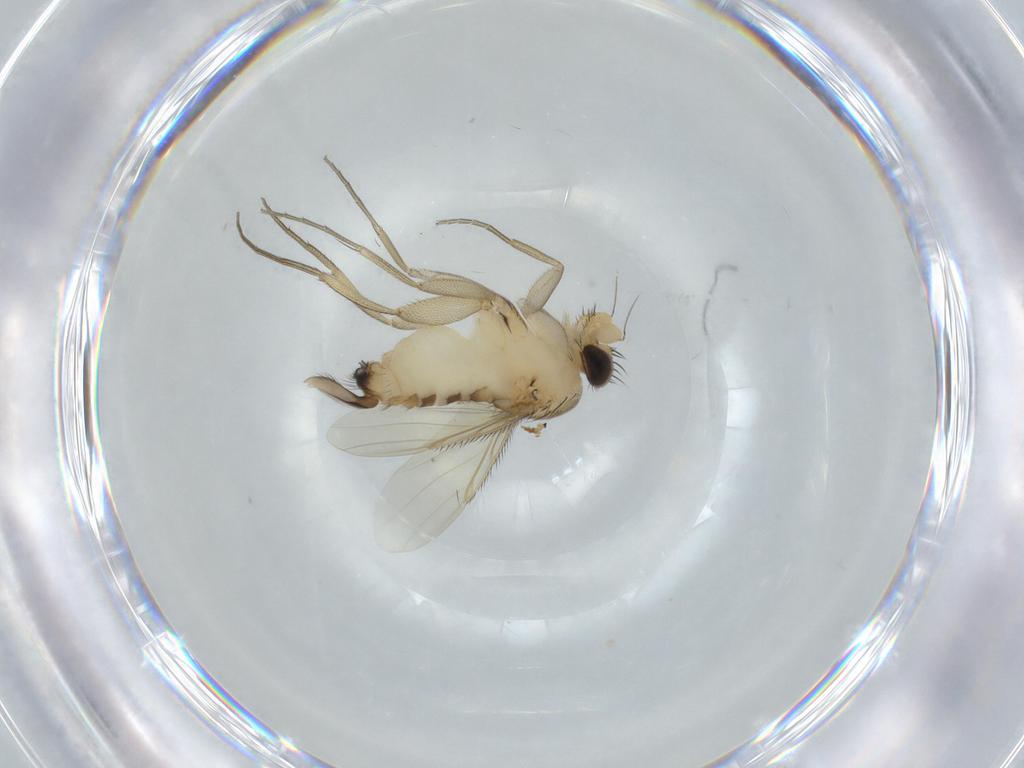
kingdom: Animalia
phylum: Arthropoda
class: Insecta
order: Diptera
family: Phoridae
